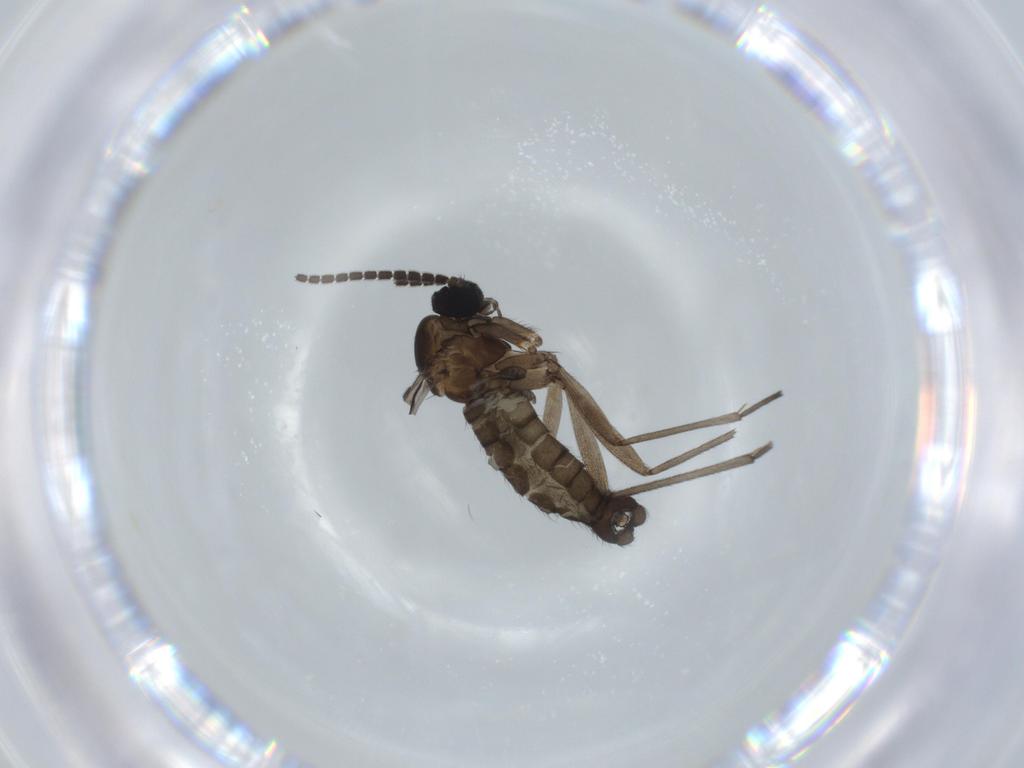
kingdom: Animalia
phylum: Arthropoda
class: Insecta
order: Diptera
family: Sciaridae
